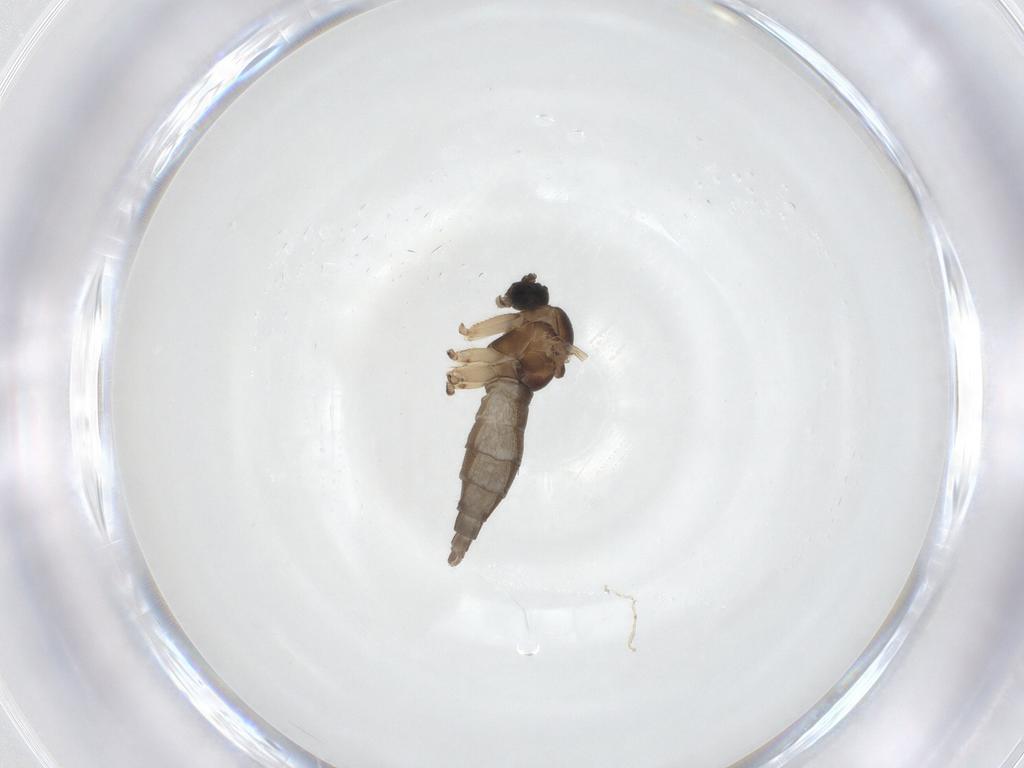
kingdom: Animalia
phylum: Arthropoda
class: Insecta
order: Diptera
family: Sciaridae
